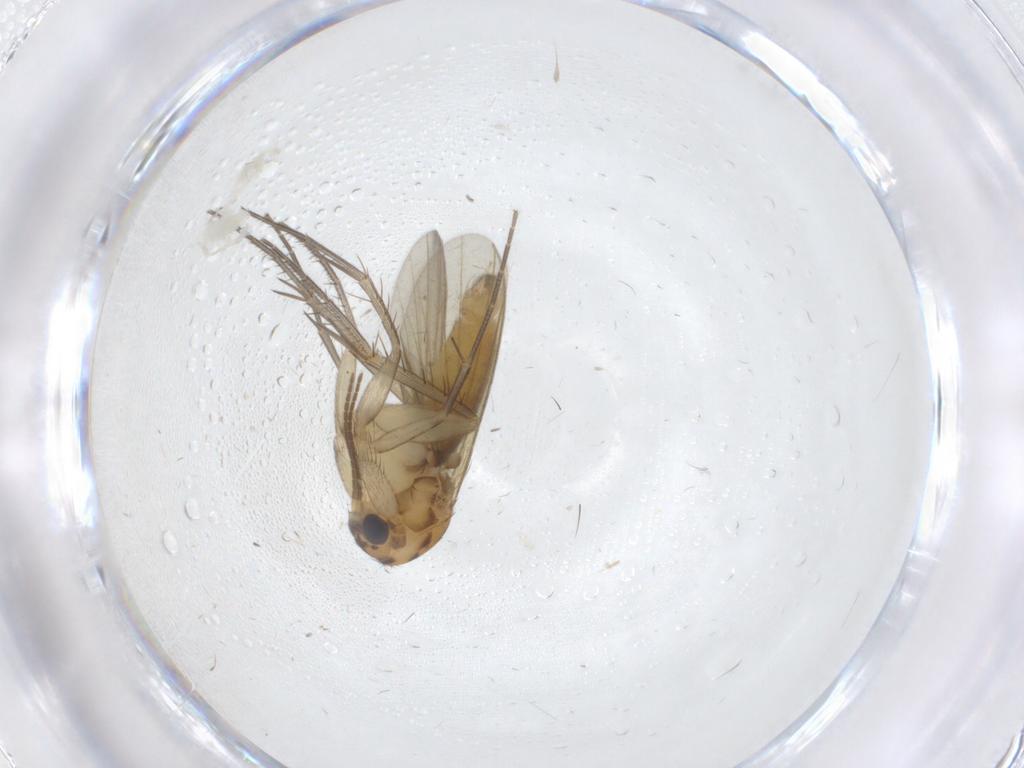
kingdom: Animalia
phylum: Arthropoda
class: Insecta
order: Diptera
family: Mycetophilidae
